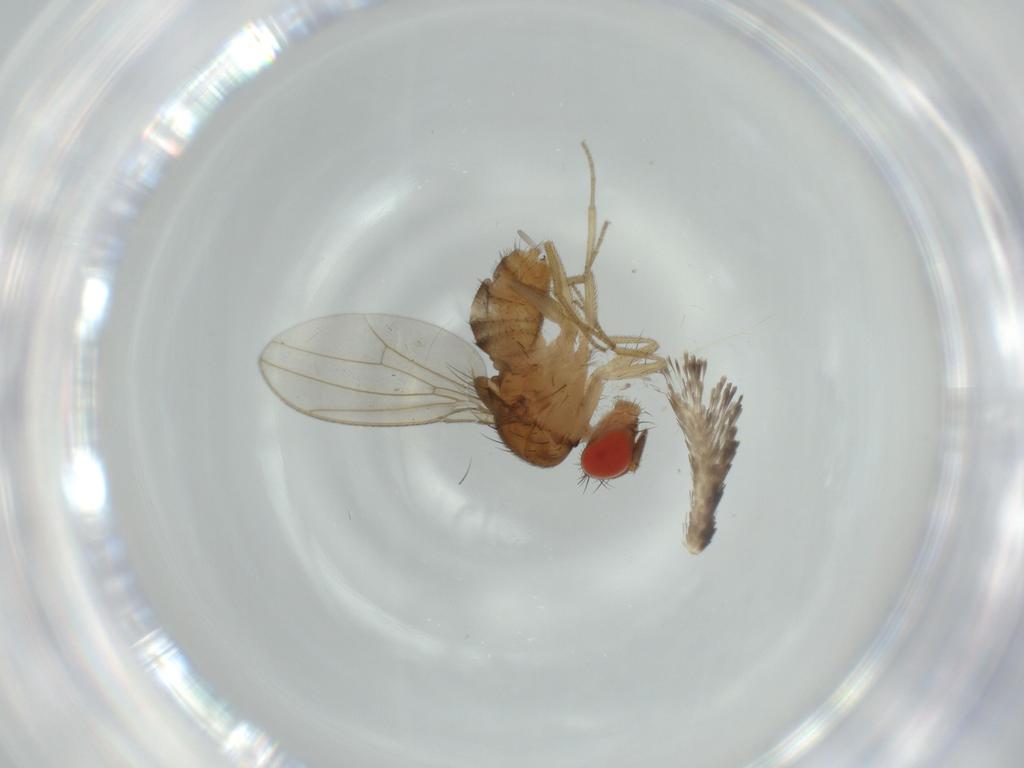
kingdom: Animalia
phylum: Arthropoda
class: Insecta
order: Diptera
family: Drosophilidae
